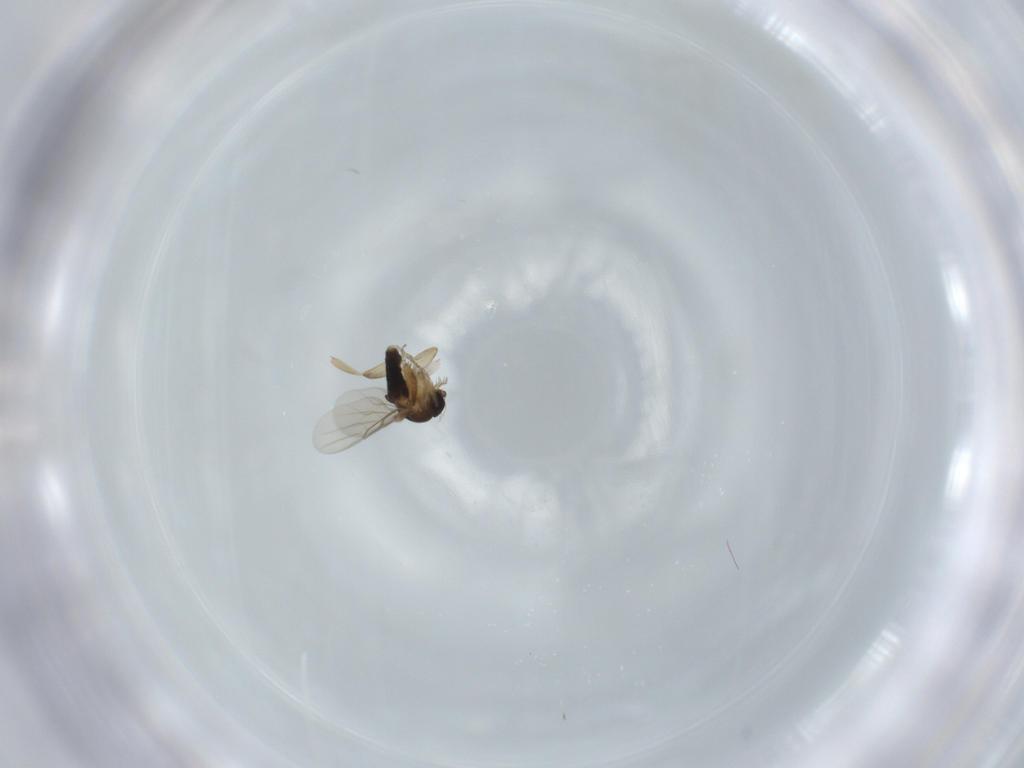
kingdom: Animalia
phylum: Arthropoda
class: Insecta
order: Diptera
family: Phoridae
